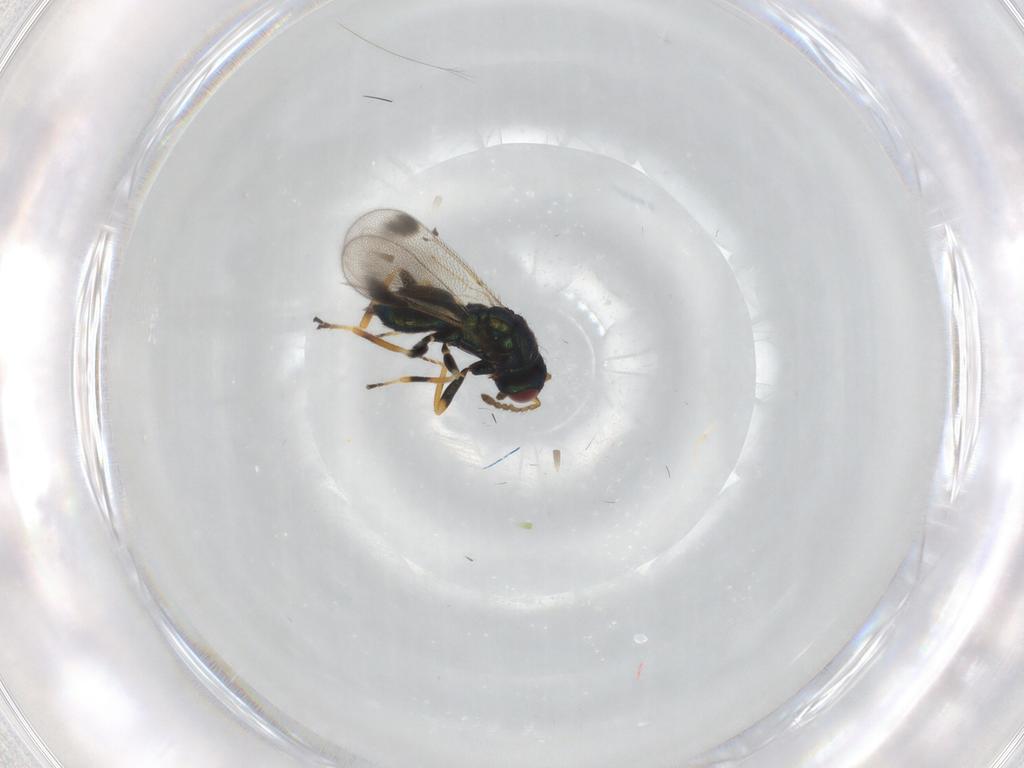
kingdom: Animalia
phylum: Arthropoda
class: Insecta
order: Hymenoptera
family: Eulophidae
